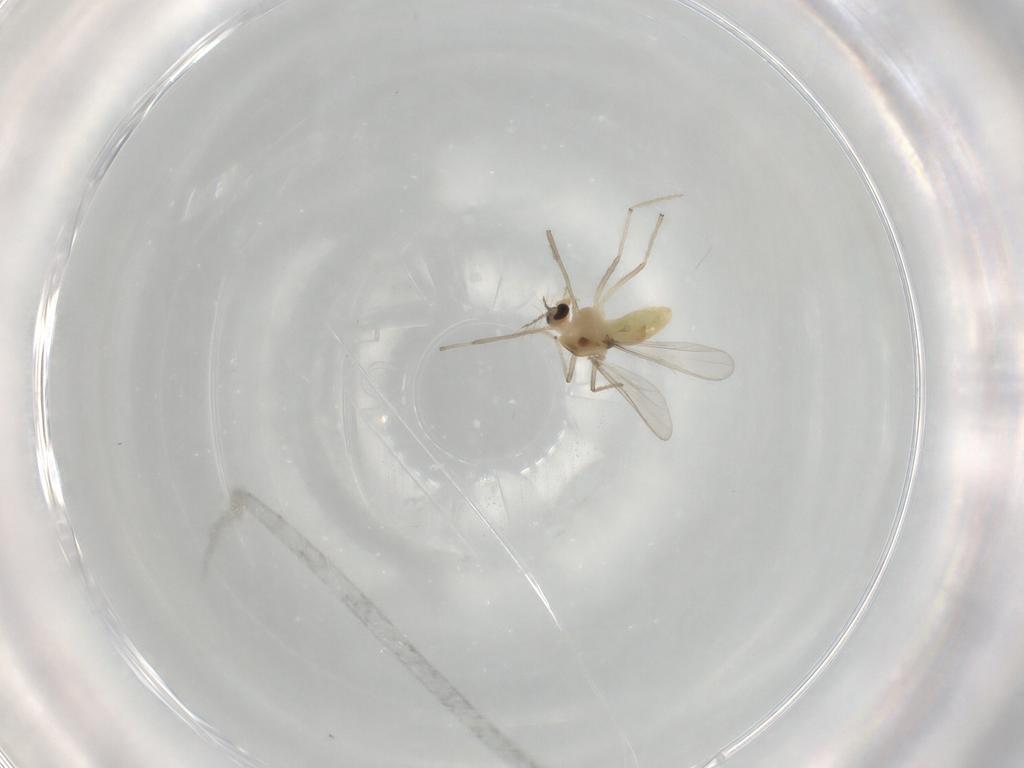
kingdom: Animalia
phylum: Arthropoda
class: Insecta
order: Diptera
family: Chironomidae
